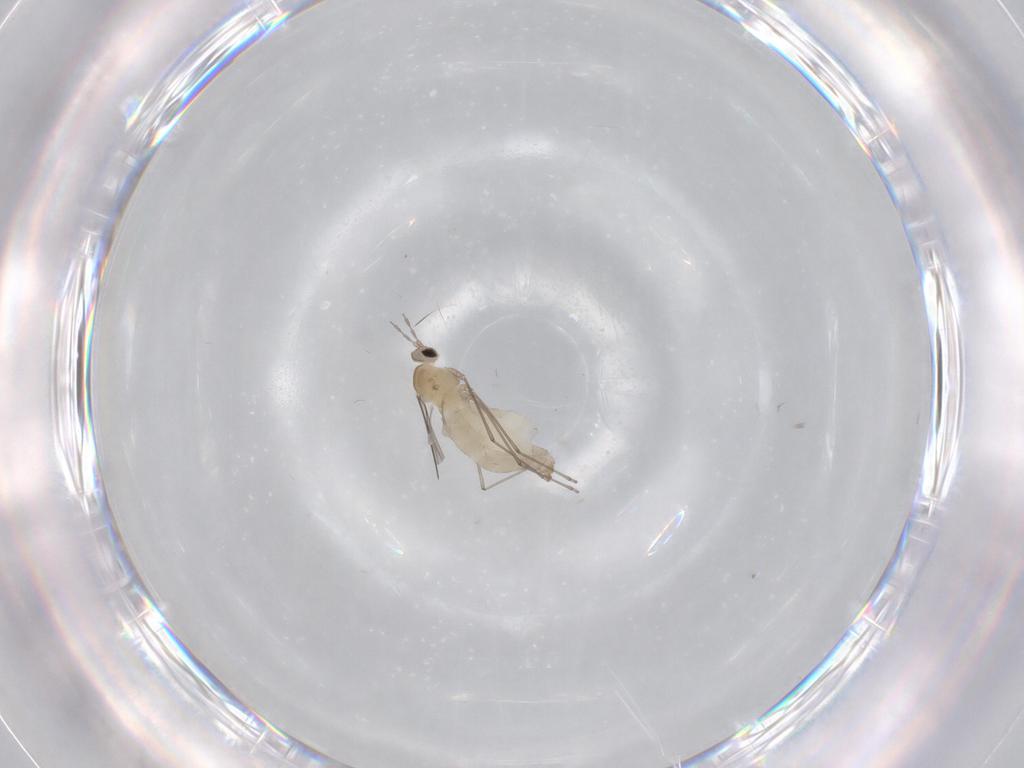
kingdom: Animalia
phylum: Arthropoda
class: Insecta
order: Diptera
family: Cecidomyiidae
